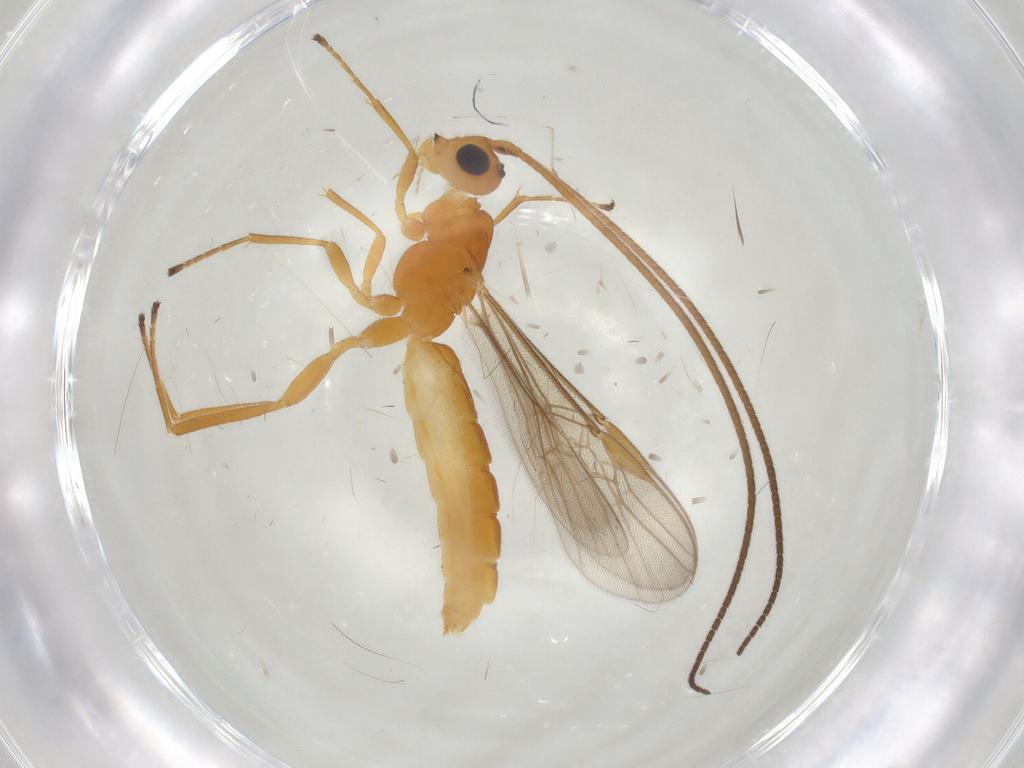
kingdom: Animalia
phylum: Arthropoda
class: Insecta
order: Hymenoptera
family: Braconidae
